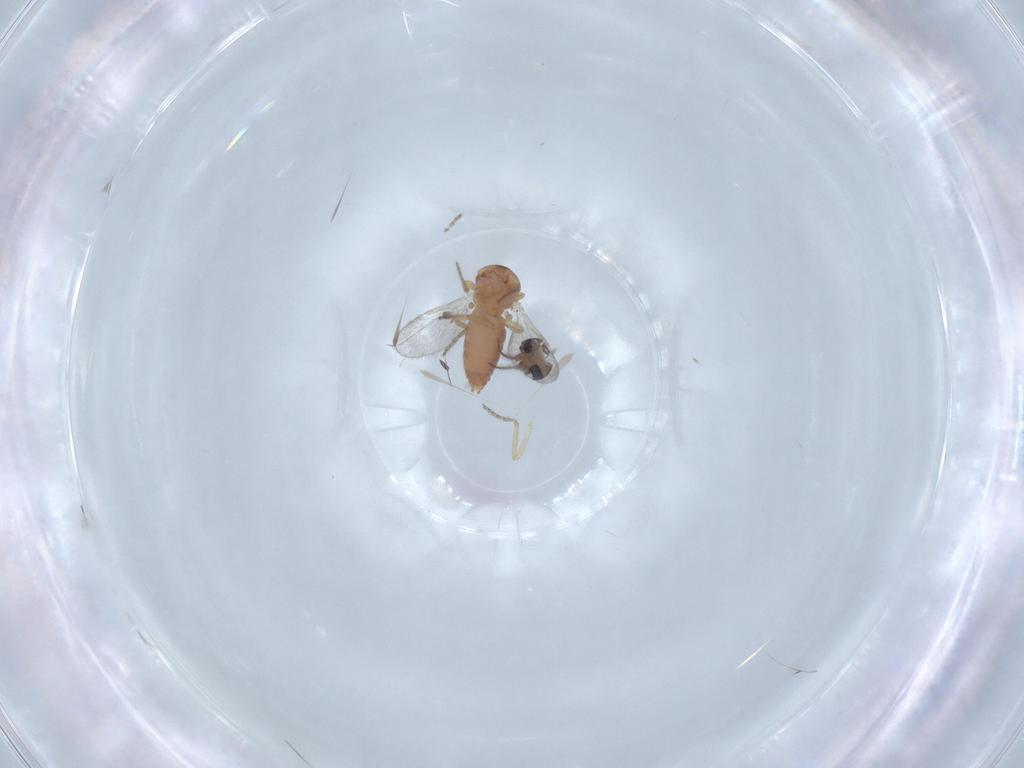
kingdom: Animalia
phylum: Arthropoda
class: Insecta
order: Diptera
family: Ceratopogonidae
